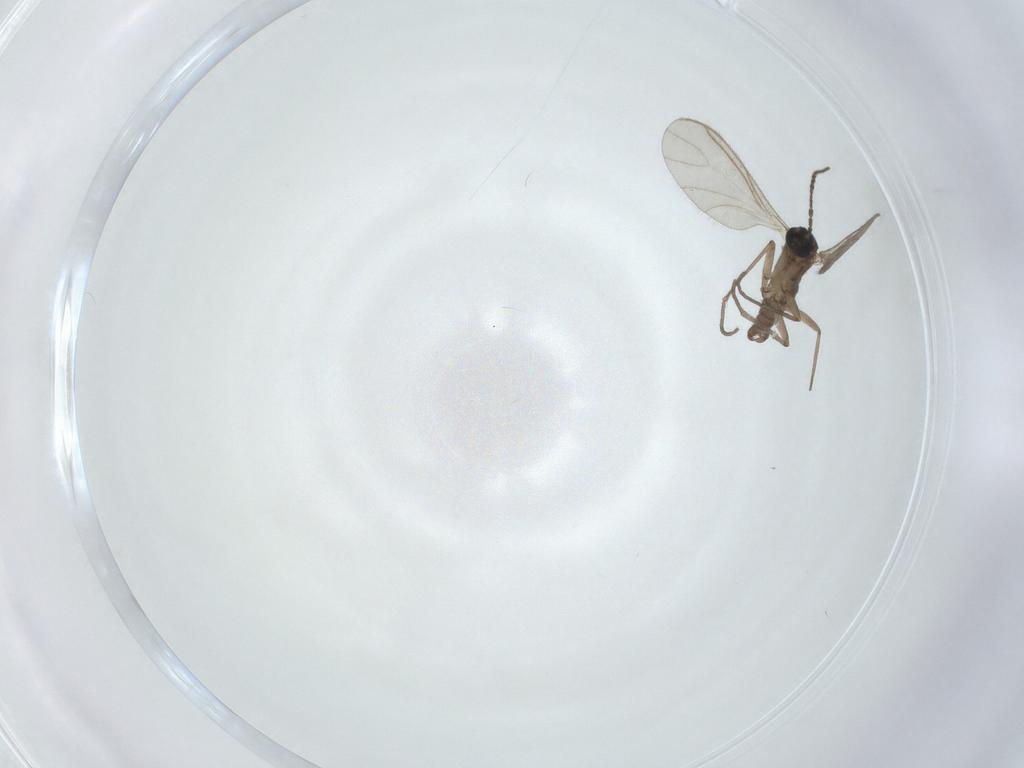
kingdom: Animalia
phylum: Arthropoda
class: Insecta
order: Diptera
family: Sciaridae
